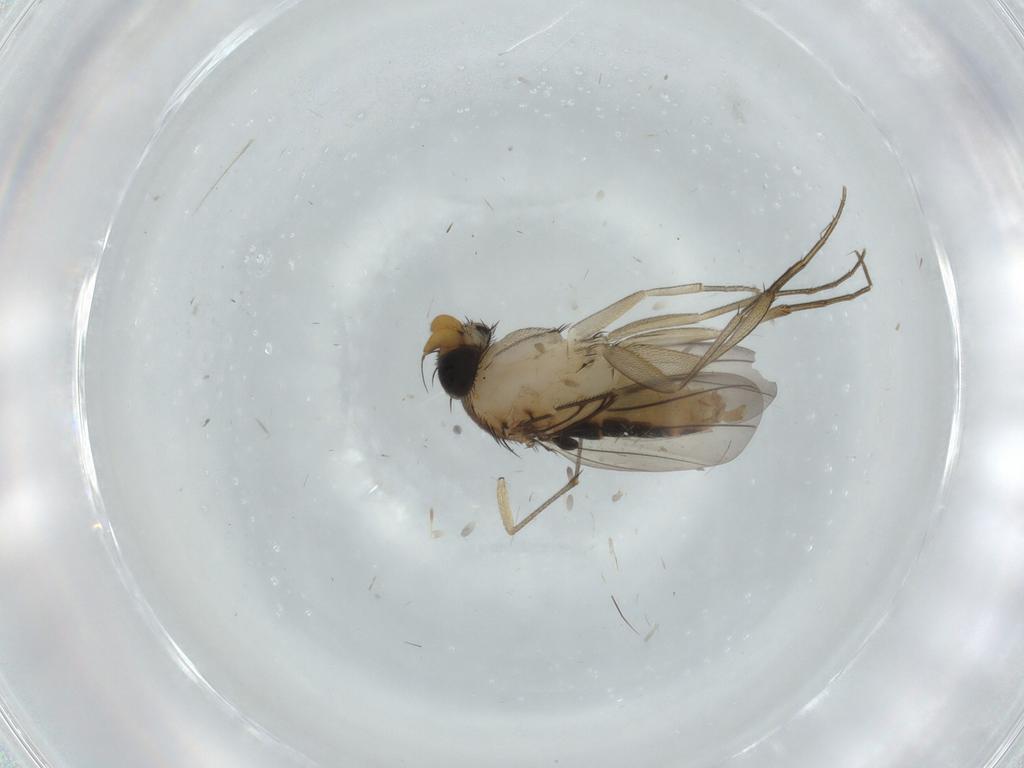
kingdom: Animalia
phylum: Arthropoda
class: Insecta
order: Diptera
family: Phoridae
